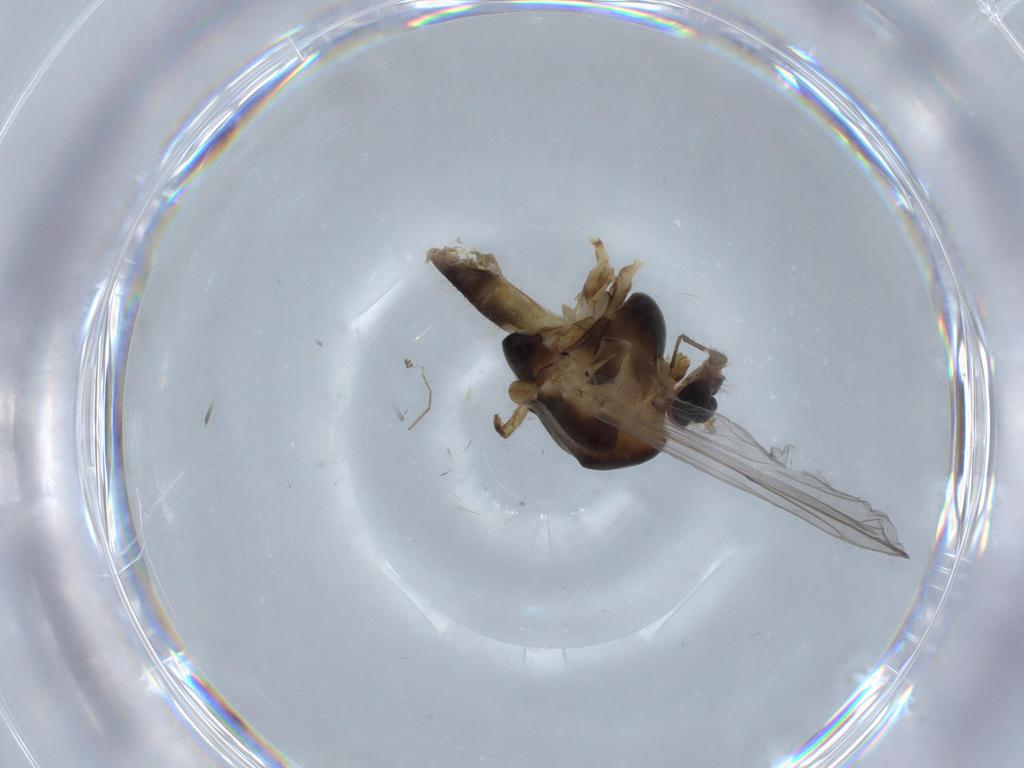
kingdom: Animalia
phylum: Arthropoda
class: Insecta
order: Diptera
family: Chironomidae
